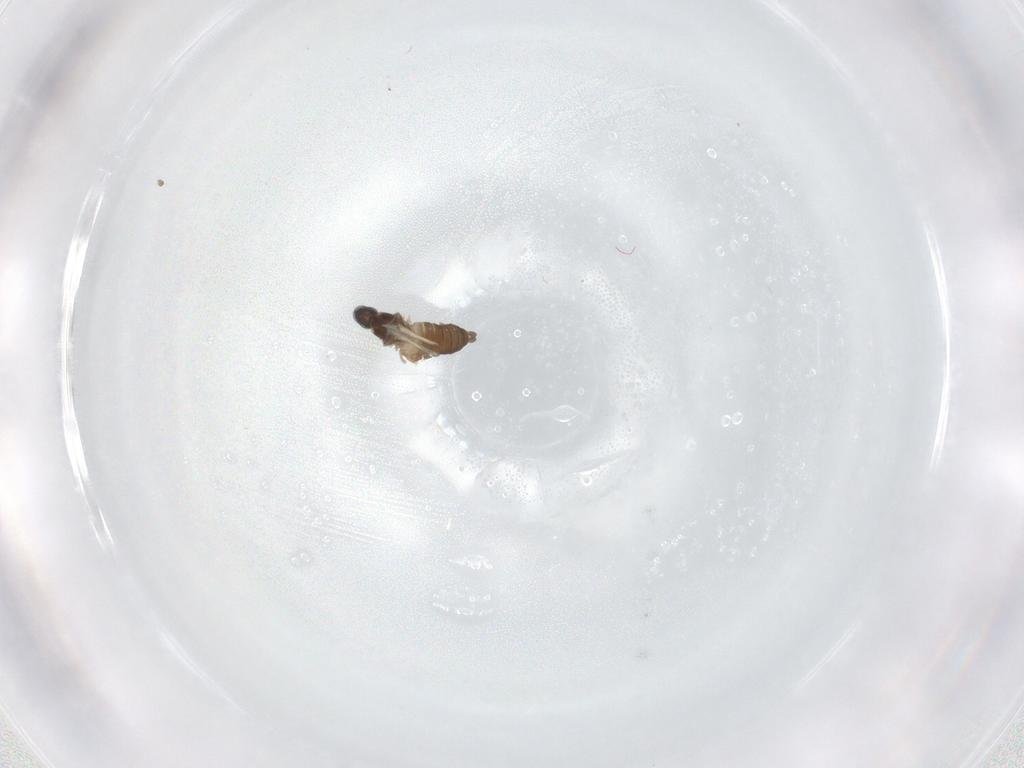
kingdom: Animalia
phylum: Arthropoda
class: Insecta
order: Diptera
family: Cecidomyiidae
